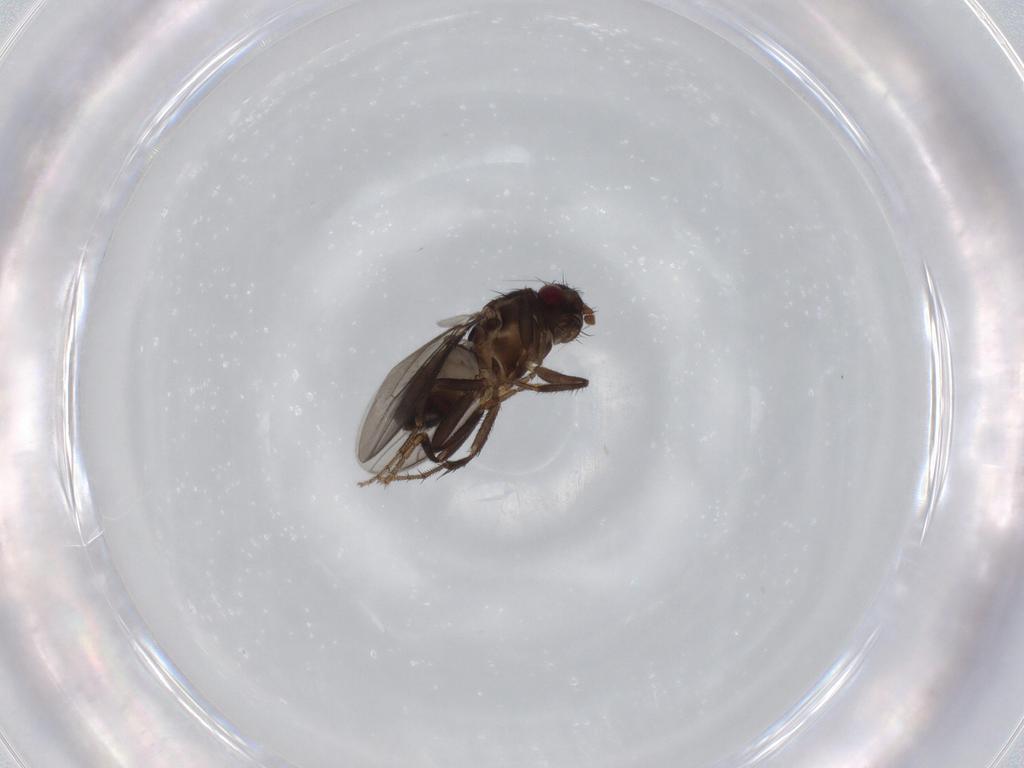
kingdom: Animalia
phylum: Arthropoda
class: Insecta
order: Diptera
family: Sphaeroceridae
